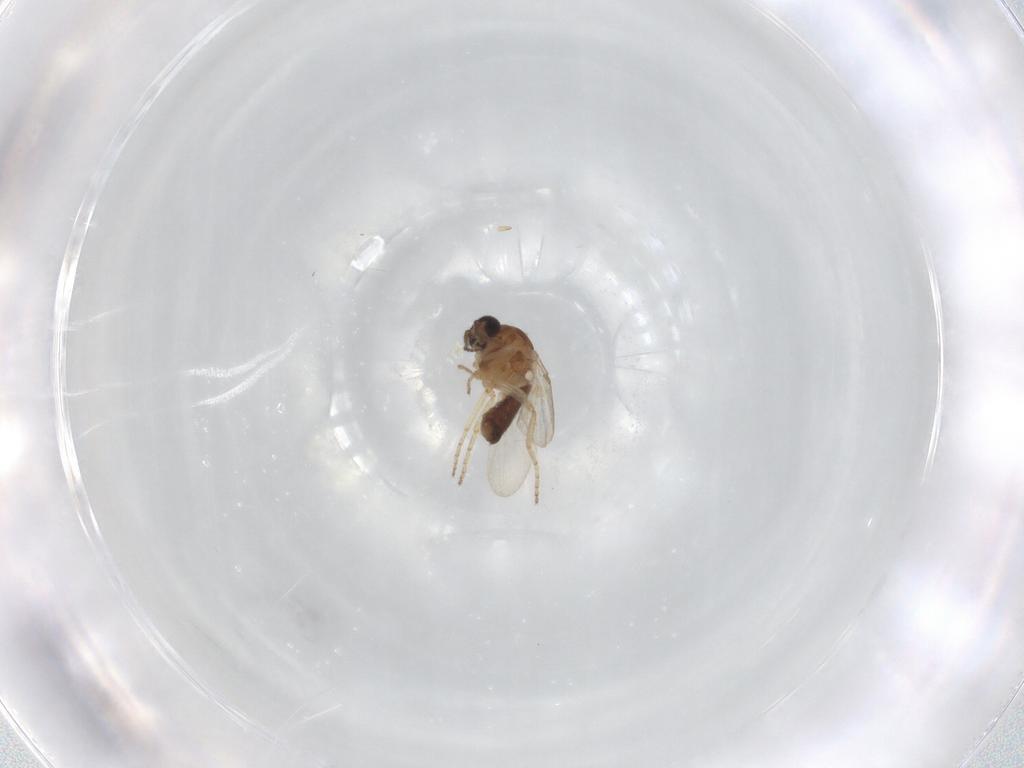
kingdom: Animalia
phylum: Arthropoda
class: Insecta
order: Diptera
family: Ceratopogonidae
